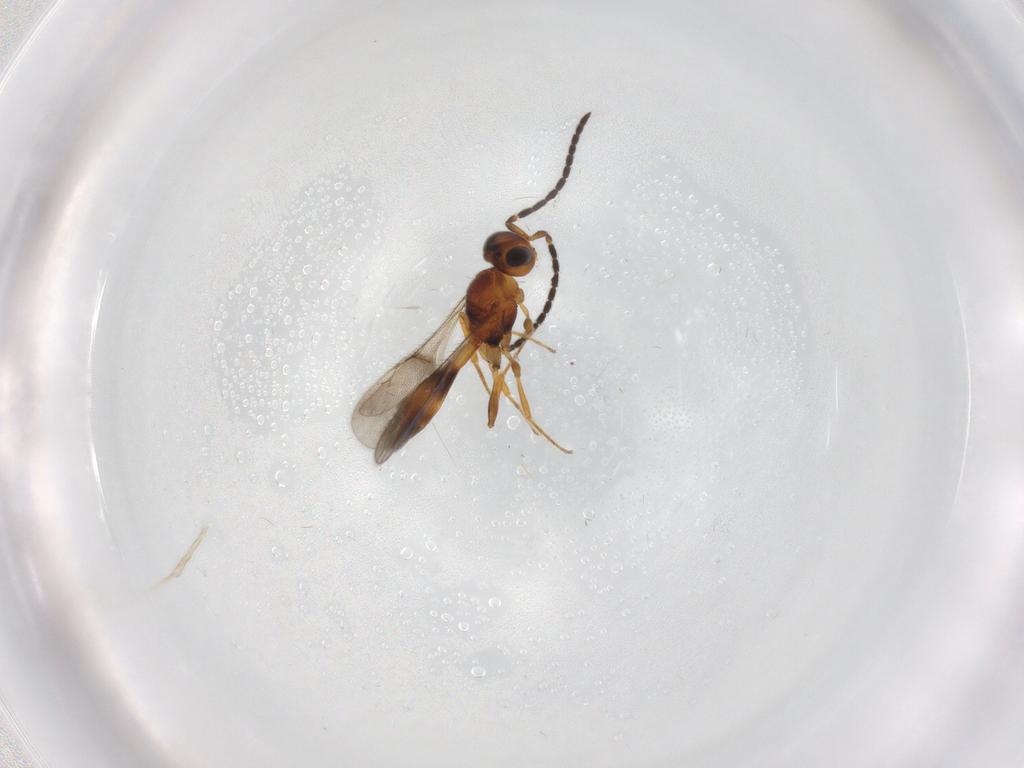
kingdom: Animalia
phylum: Arthropoda
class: Insecta
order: Hymenoptera
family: Scelionidae
